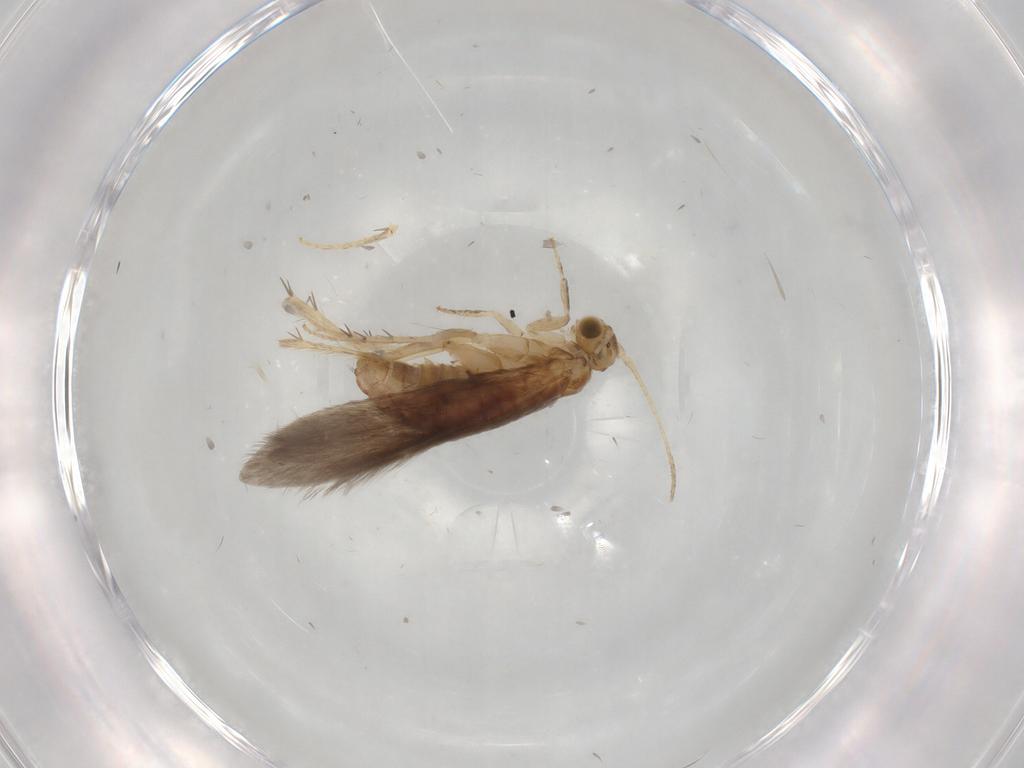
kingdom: Animalia
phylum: Arthropoda
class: Insecta
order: Trichoptera
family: Glossosomatidae
